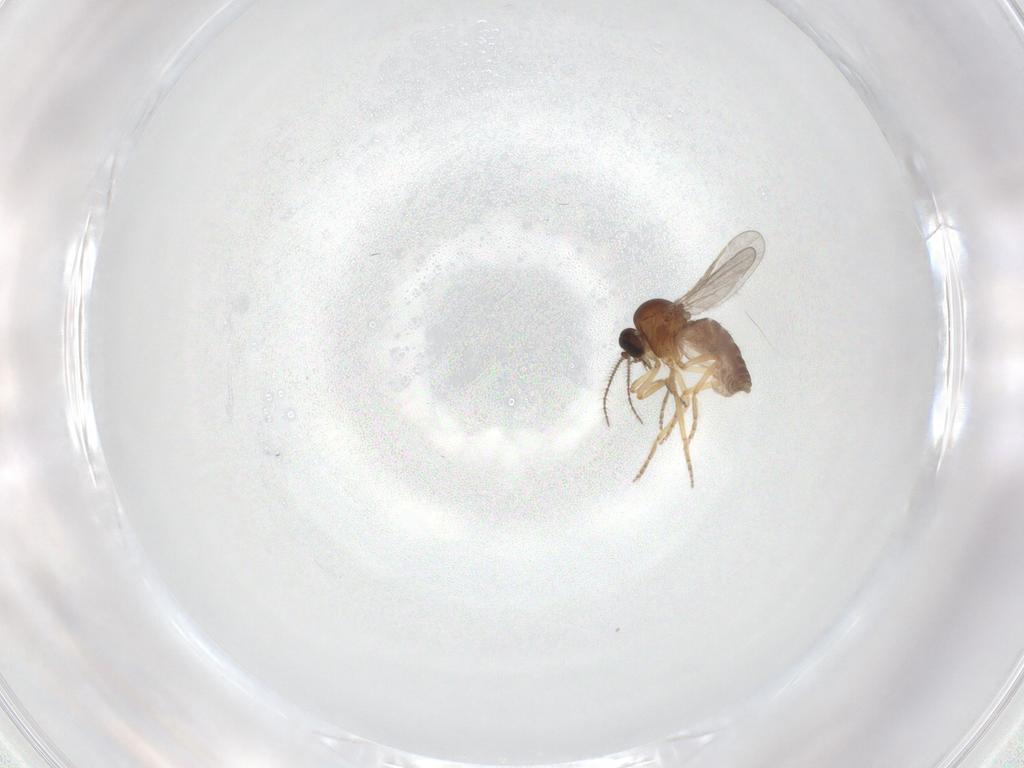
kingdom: Animalia
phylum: Arthropoda
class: Insecta
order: Diptera
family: Ceratopogonidae
